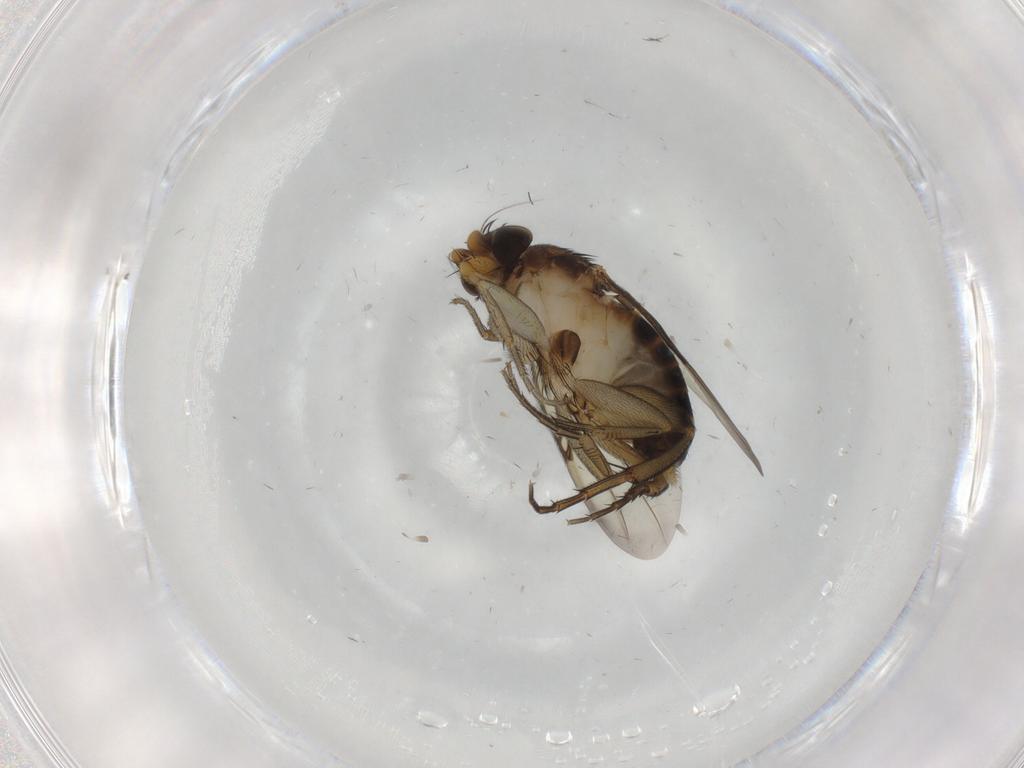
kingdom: Animalia
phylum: Arthropoda
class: Insecta
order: Diptera
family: Phoridae
